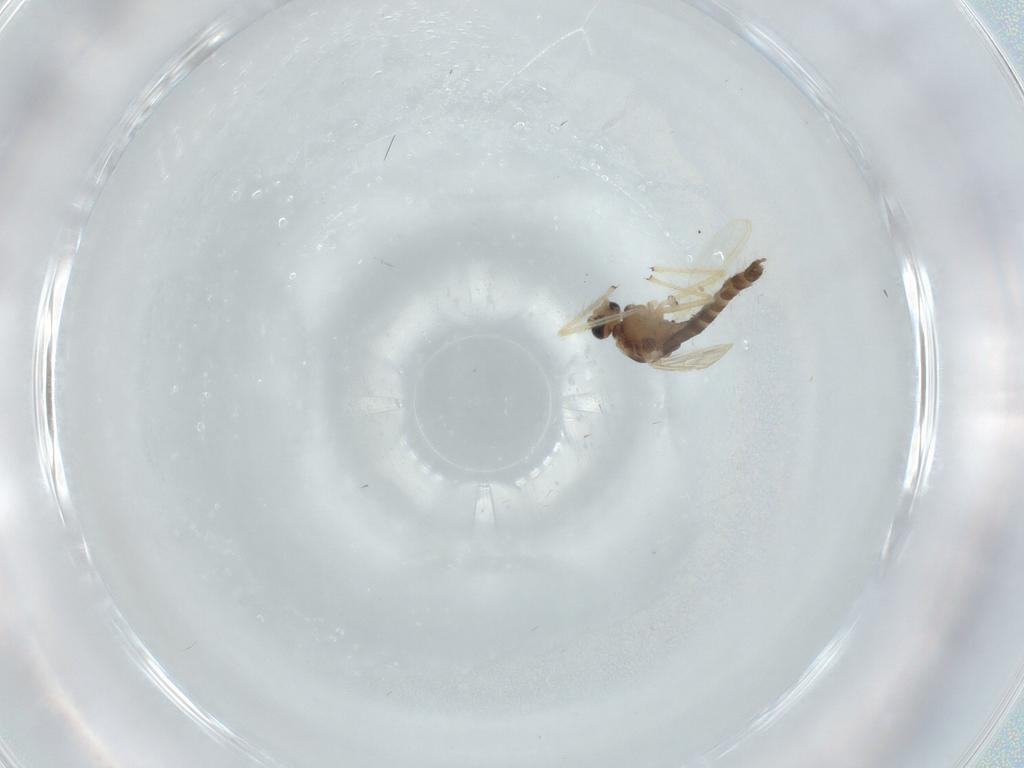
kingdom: Animalia
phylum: Arthropoda
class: Insecta
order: Diptera
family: Chironomidae
